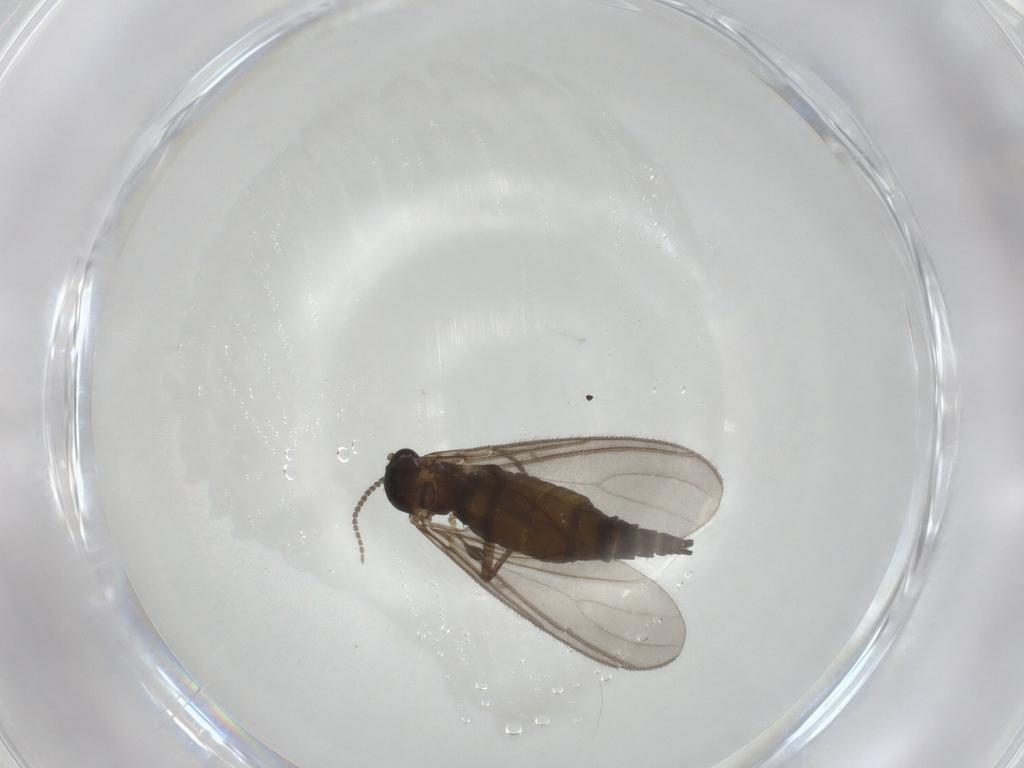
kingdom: Animalia
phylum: Arthropoda
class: Insecta
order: Diptera
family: Sciaridae
